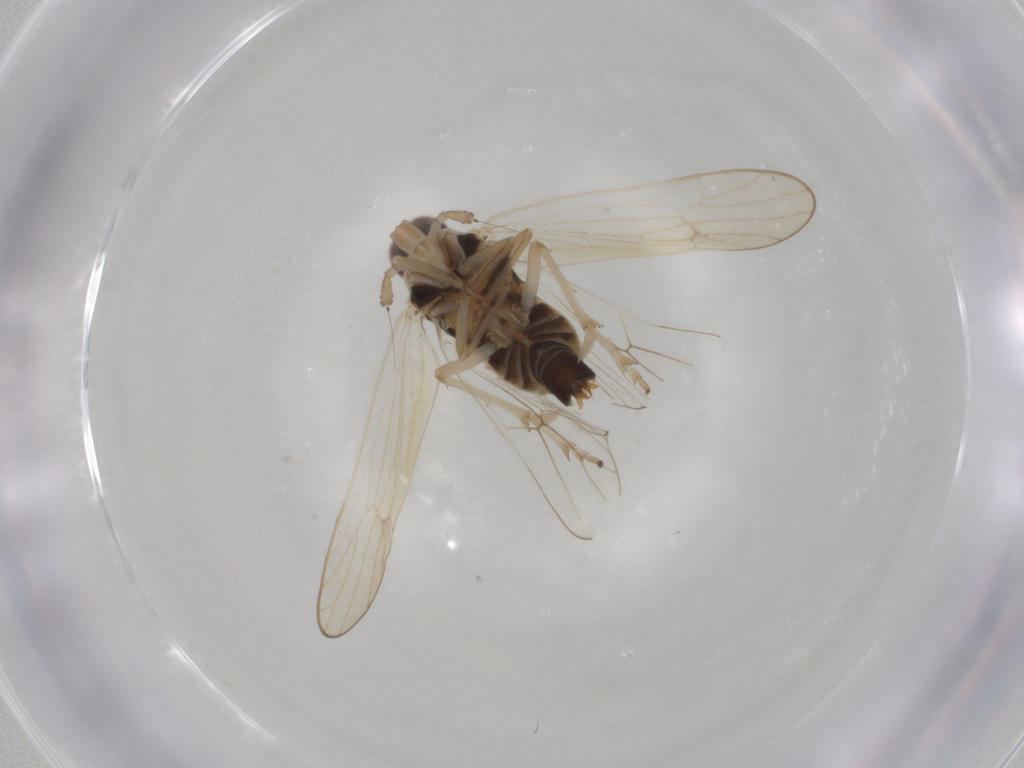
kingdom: Animalia
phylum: Arthropoda
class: Insecta
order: Hemiptera
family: Delphacidae
